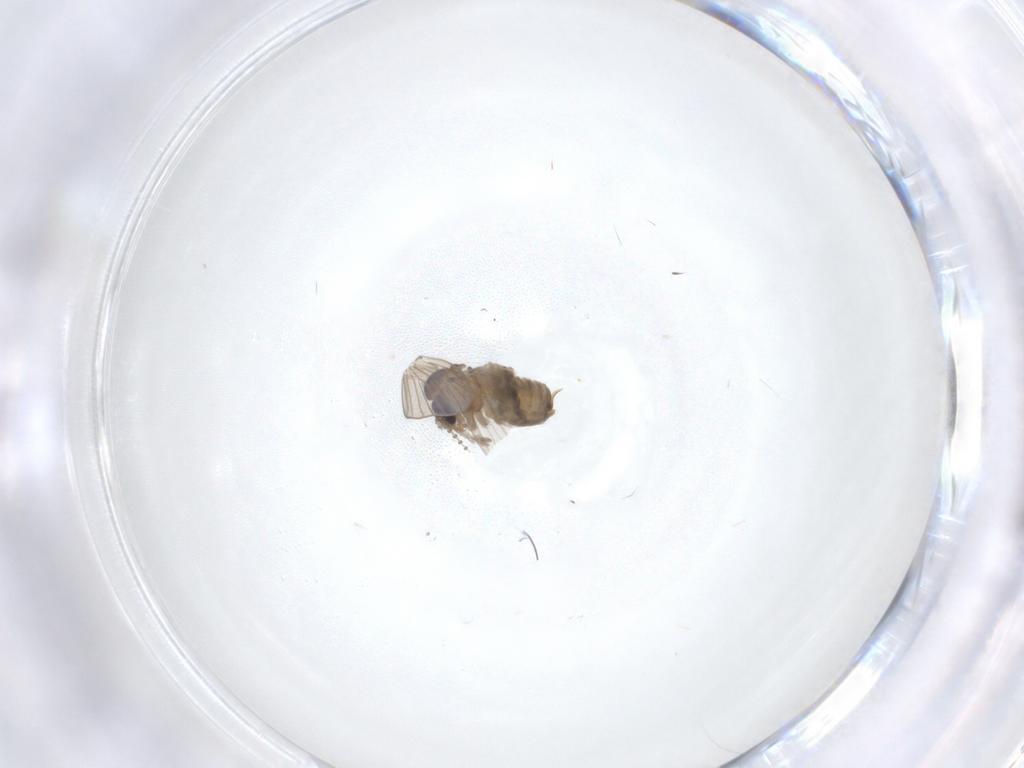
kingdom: Animalia
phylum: Arthropoda
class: Insecta
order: Diptera
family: Psychodidae
